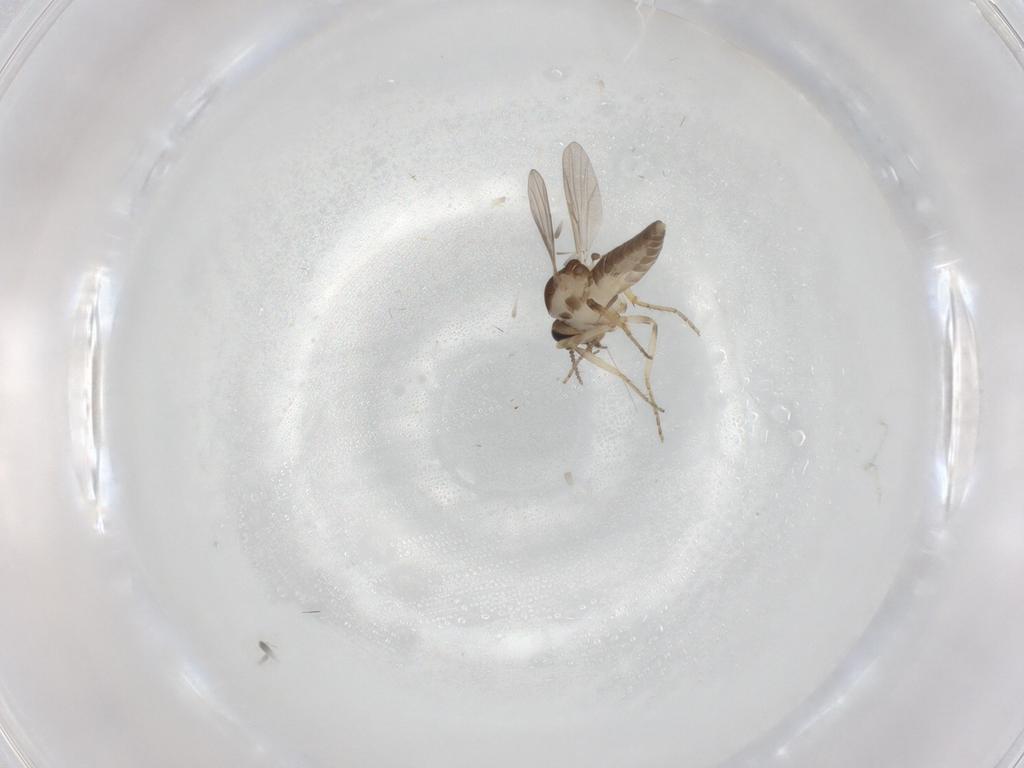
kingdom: Animalia
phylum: Arthropoda
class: Insecta
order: Diptera
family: Ceratopogonidae
